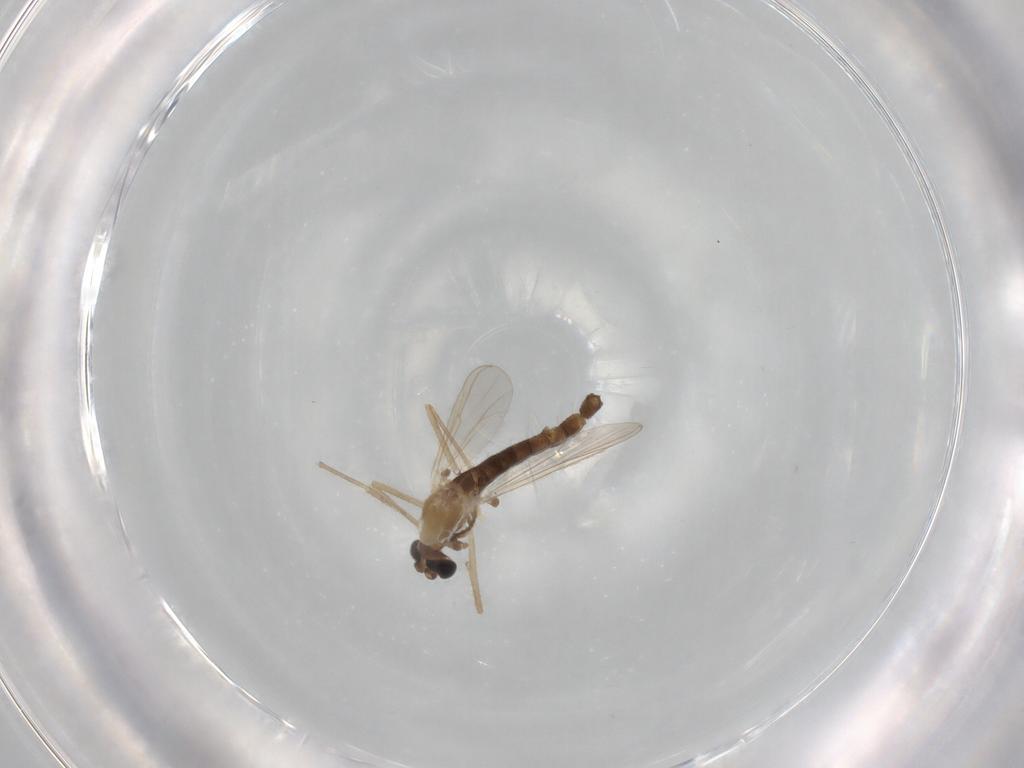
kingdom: Animalia
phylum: Arthropoda
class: Insecta
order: Diptera
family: Chironomidae
